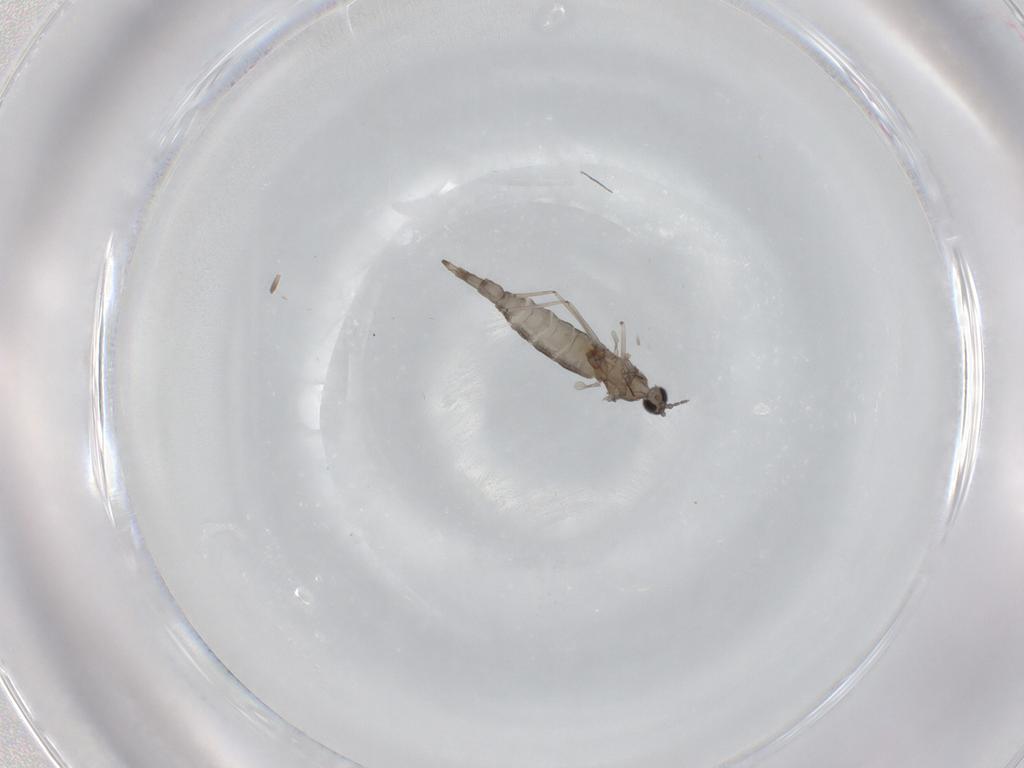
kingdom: Animalia
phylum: Arthropoda
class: Insecta
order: Diptera
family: Cecidomyiidae
